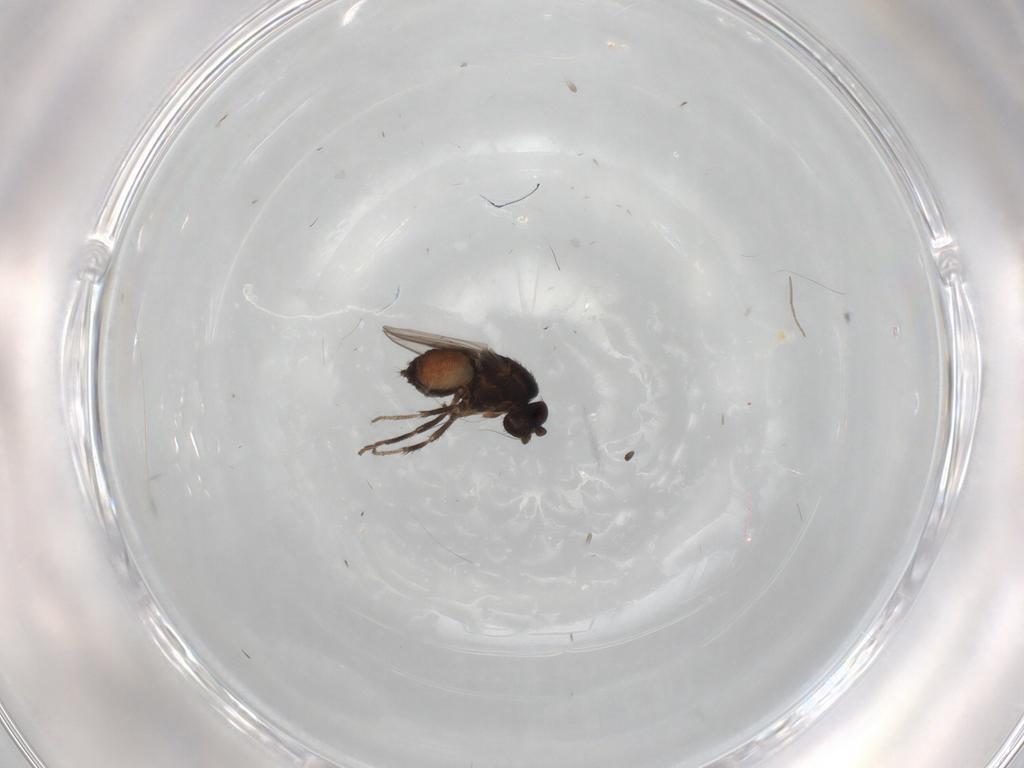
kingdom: Animalia
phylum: Arthropoda
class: Insecta
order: Diptera
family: Sphaeroceridae
